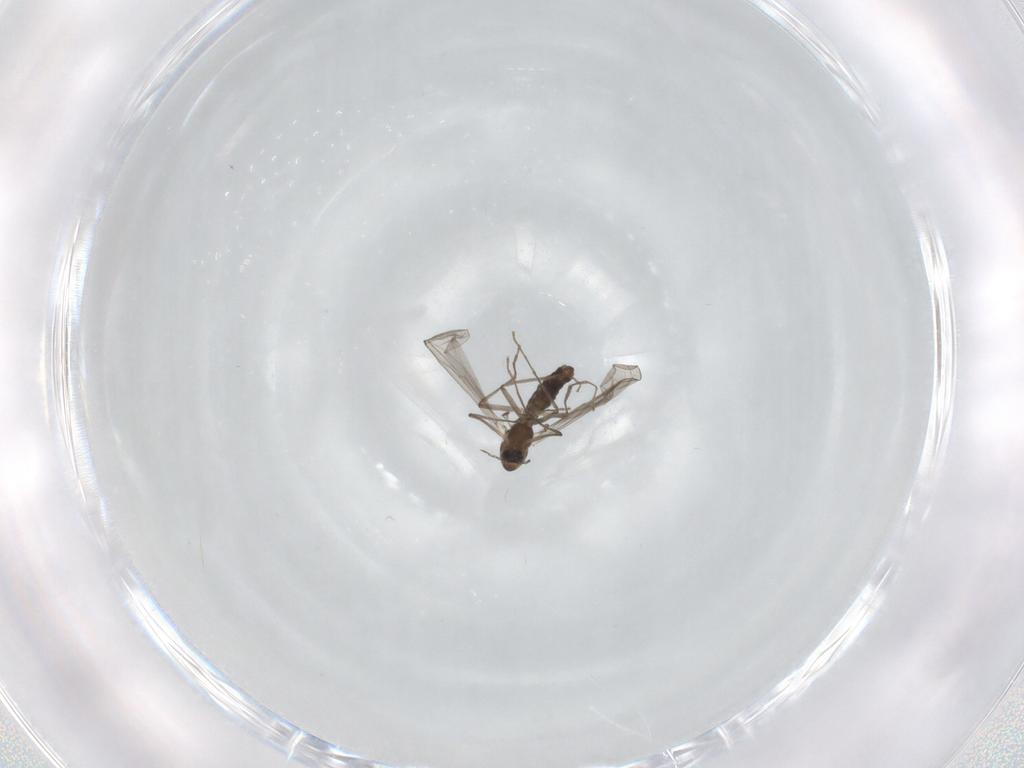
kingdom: Animalia
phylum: Arthropoda
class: Insecta
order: Diptera
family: Chironomidae
